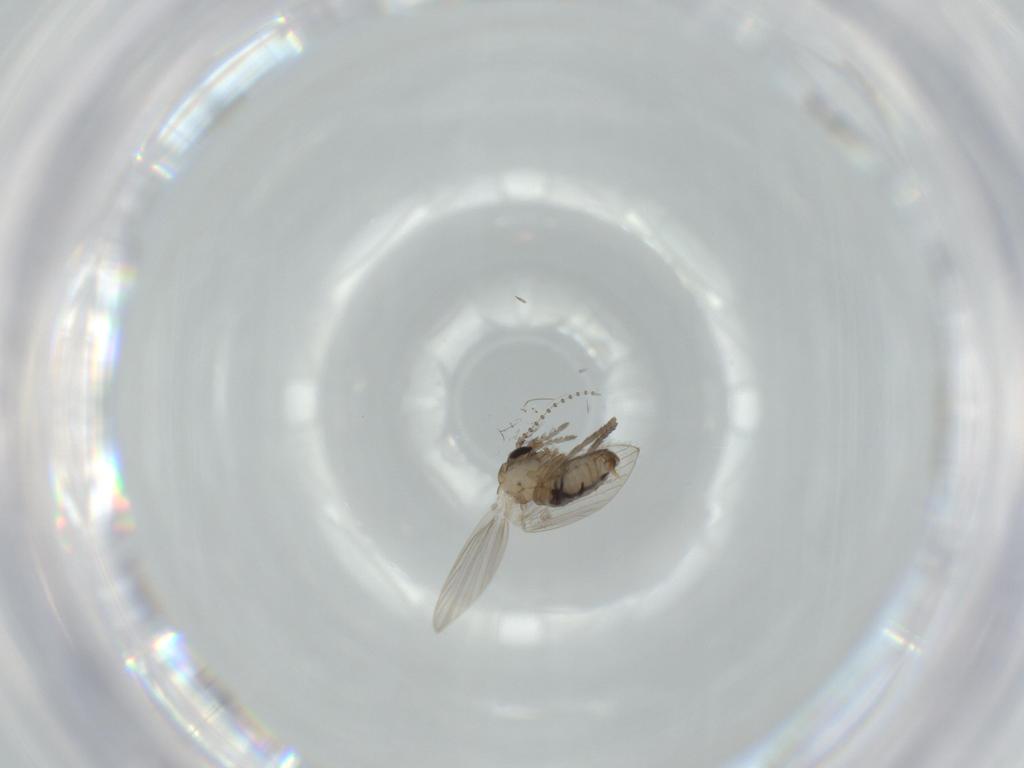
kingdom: Animalia
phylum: Arthropoda
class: Insecta
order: Diptera
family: Psychodidae
